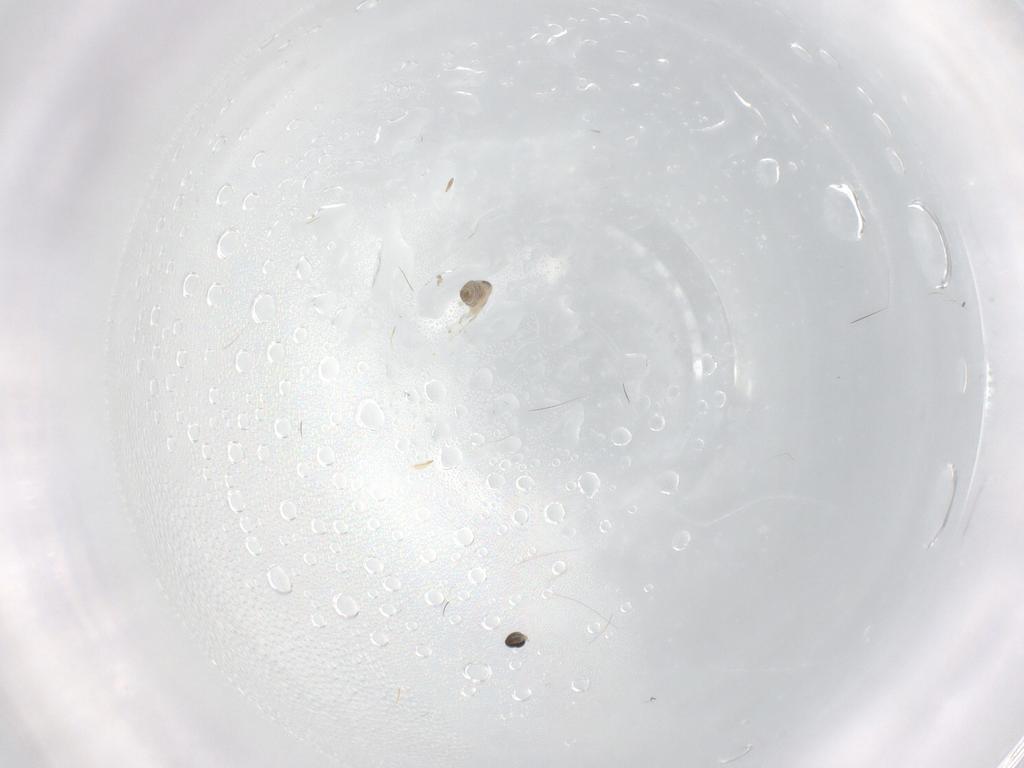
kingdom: Animalia
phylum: Arthropoda
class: Insecta
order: Diptera
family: Cecidomyiidae
